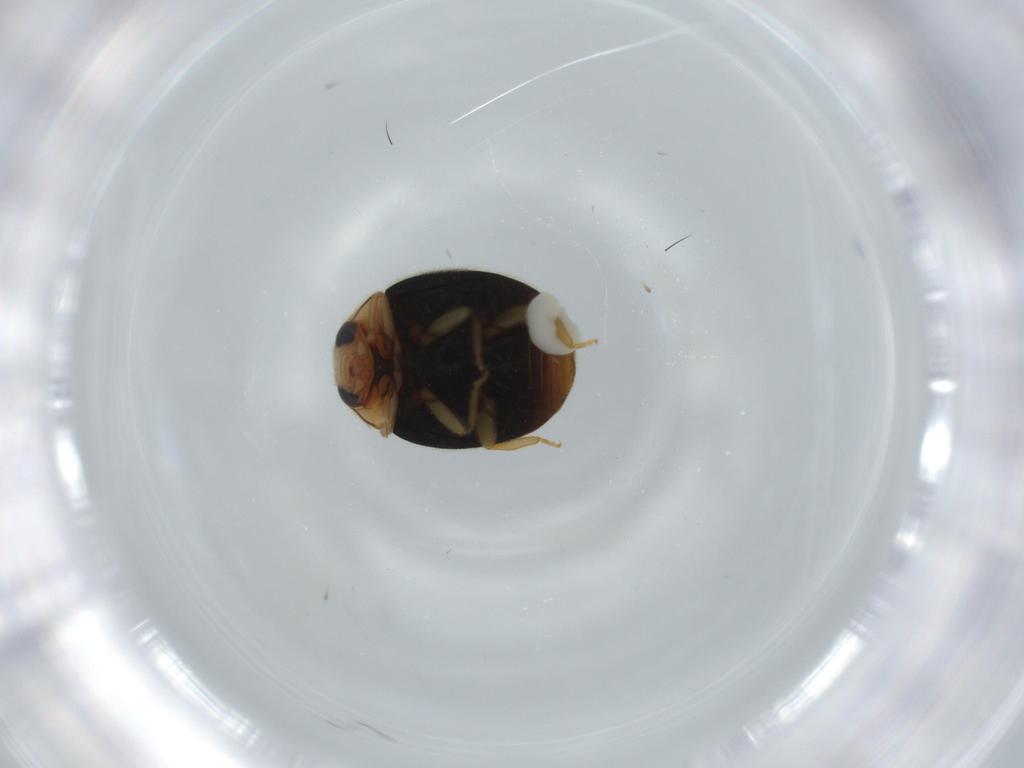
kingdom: Animalia
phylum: Arthropoda
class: Insecta
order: Coleoptera
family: Coccinellidae
